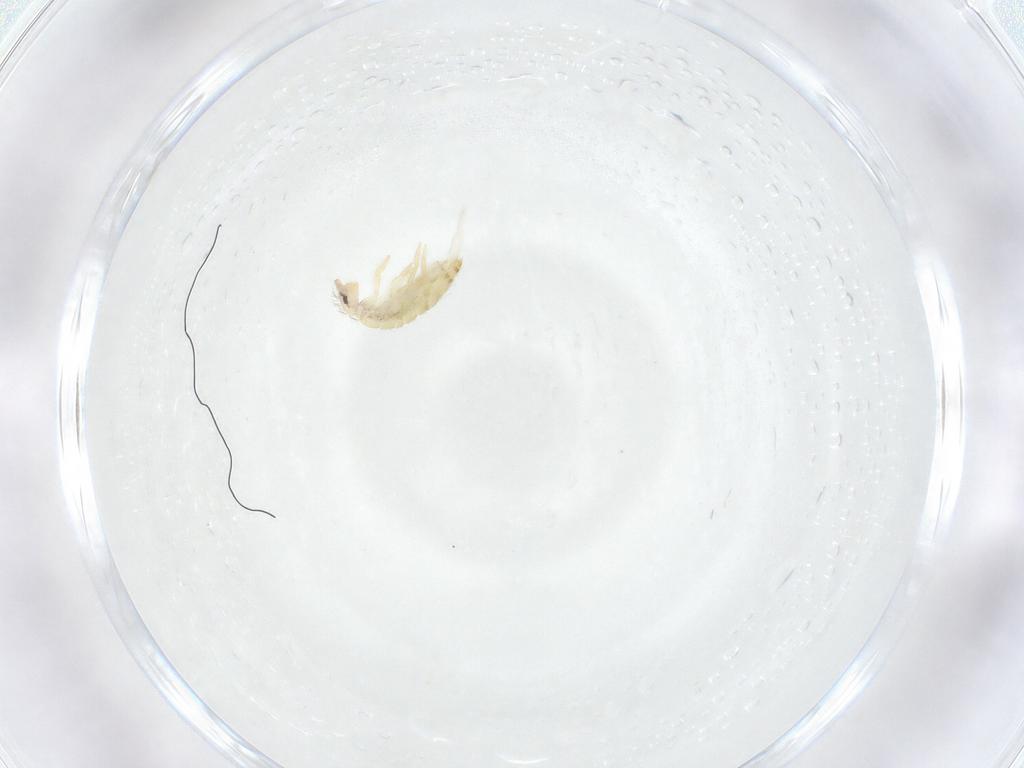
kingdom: Animalia
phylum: Arthropoda
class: Collembola
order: Entomobryomorpha
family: Entomobryidae
